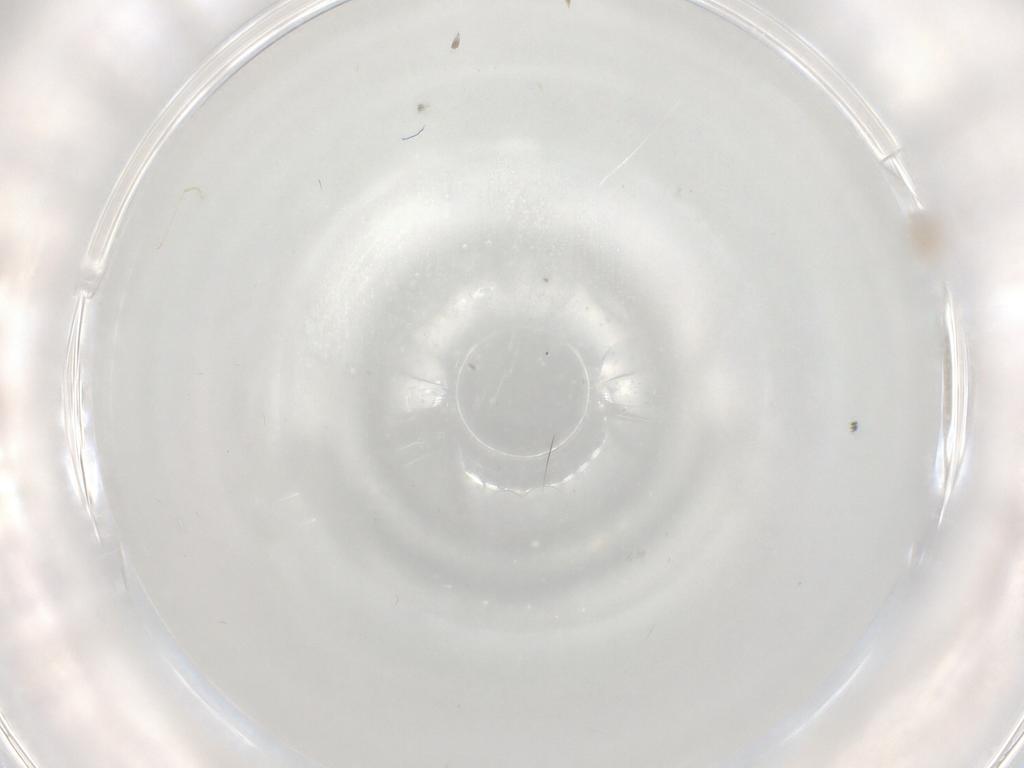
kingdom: Animalia
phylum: Arthropoda
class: Insecta
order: Diptera
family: Cecidomyiidae
